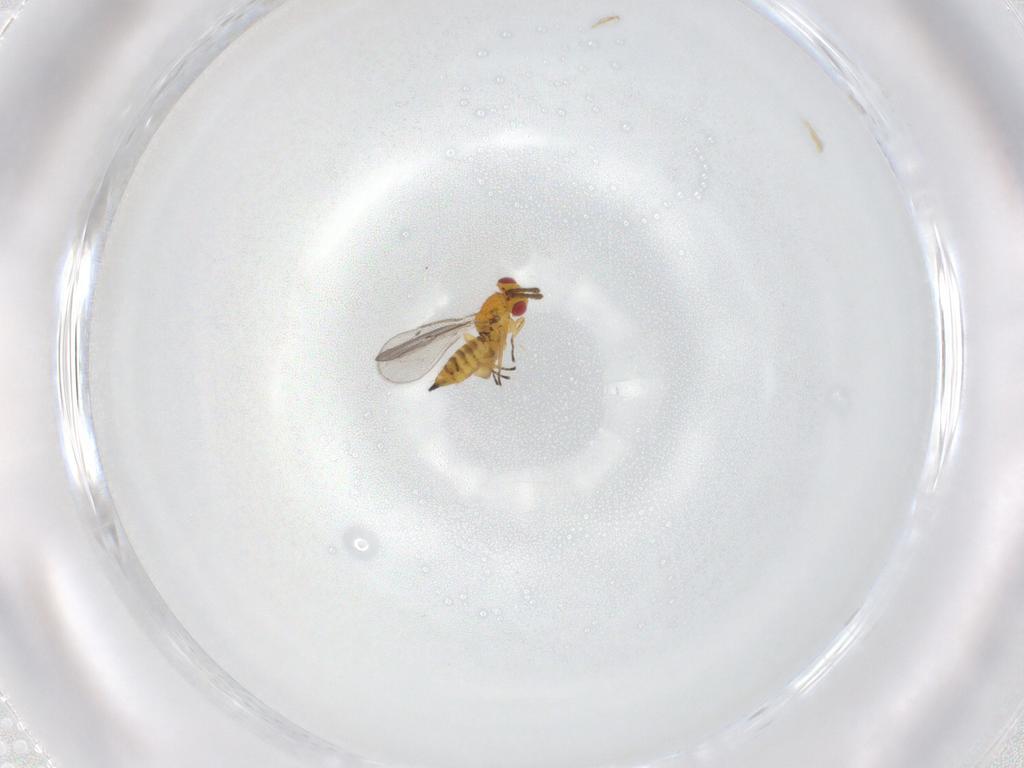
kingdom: Animalia
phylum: Arthropoda
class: Insecta
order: Hymenoptera
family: Eulophidae
